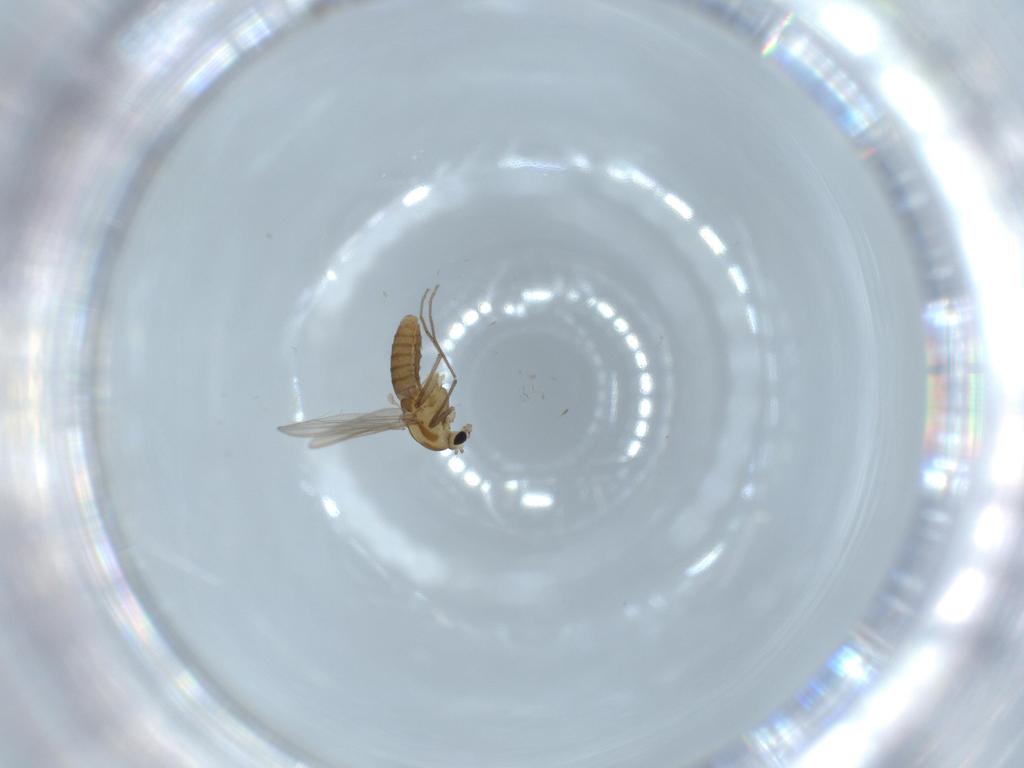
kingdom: Animalia
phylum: Arthropoda
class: Insecta
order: Diptera
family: Chironomidae
